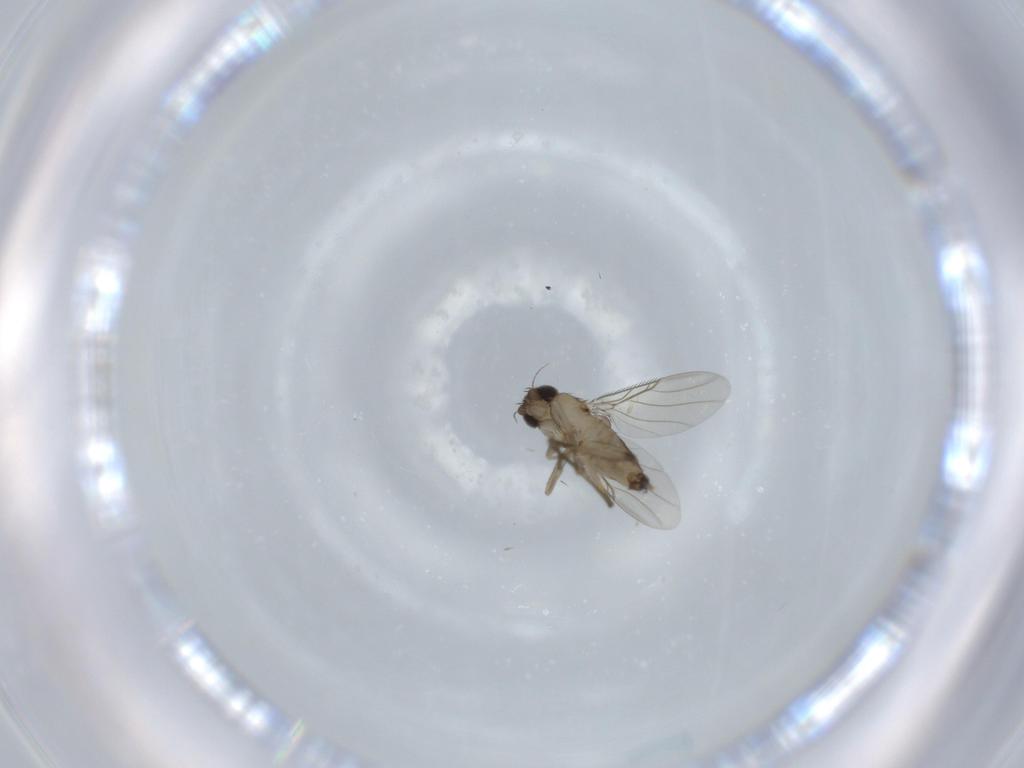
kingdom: Animalia
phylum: Arthropoda
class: Insecta
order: Diptera
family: Phoridae
